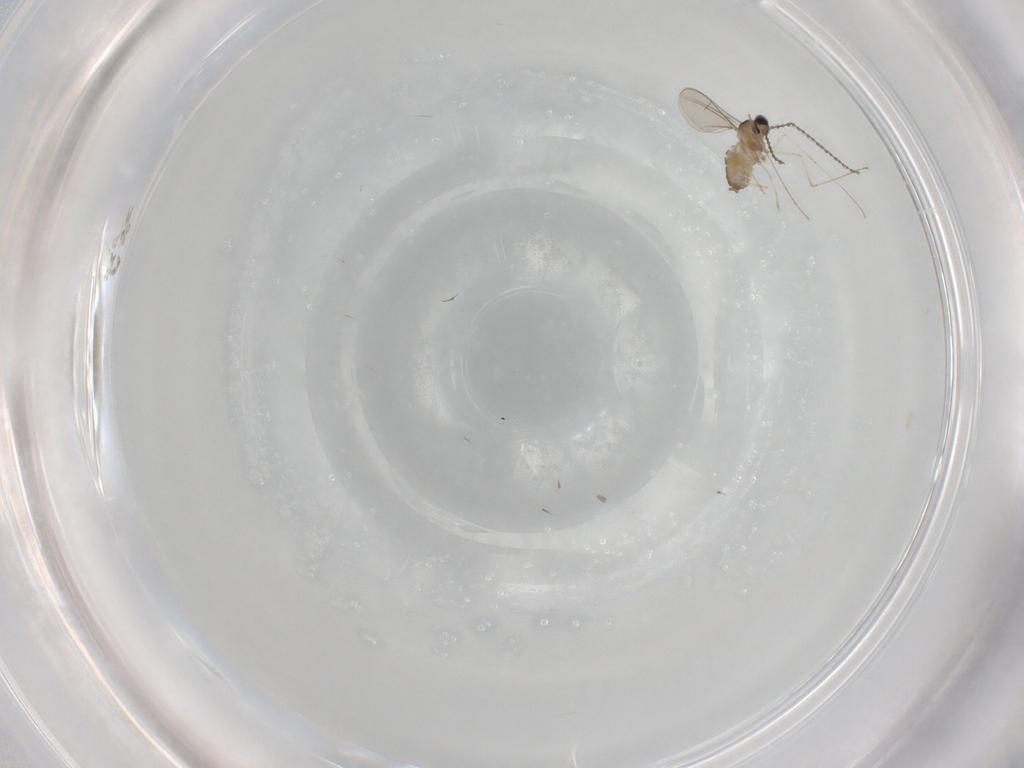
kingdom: Animalia
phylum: Arthropoda
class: Insecta
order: Diptera
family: Cecidomyiidae
